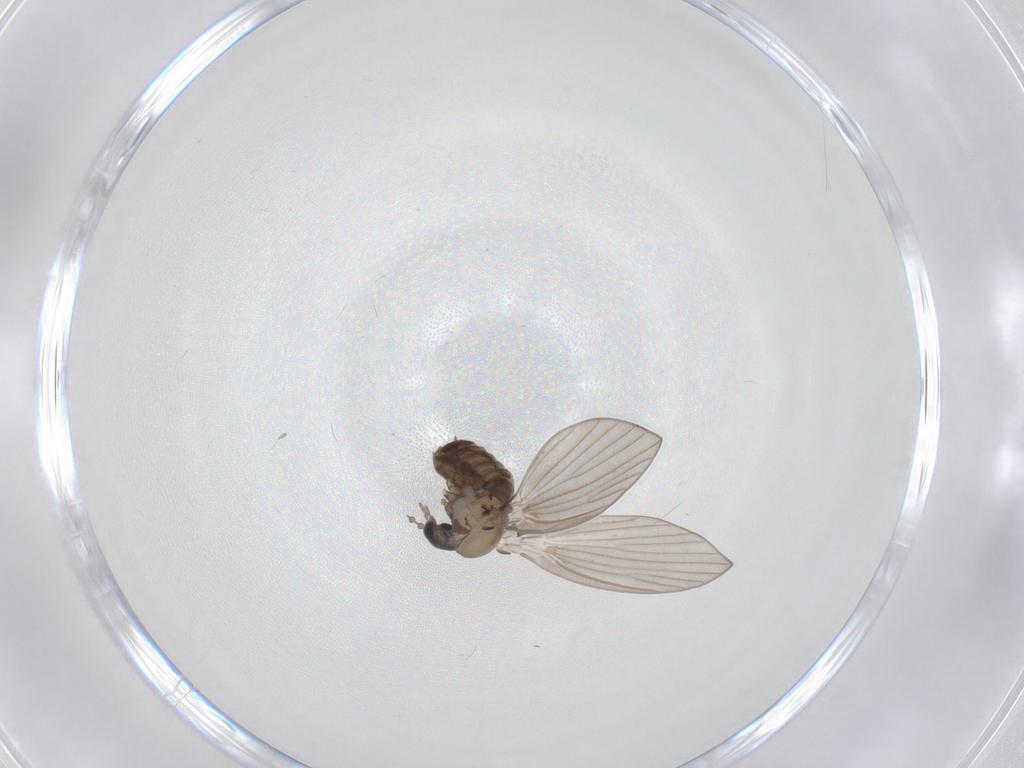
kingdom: Animalia
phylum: Arthropoda
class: Insecta
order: Diptera
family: Psychodidae
